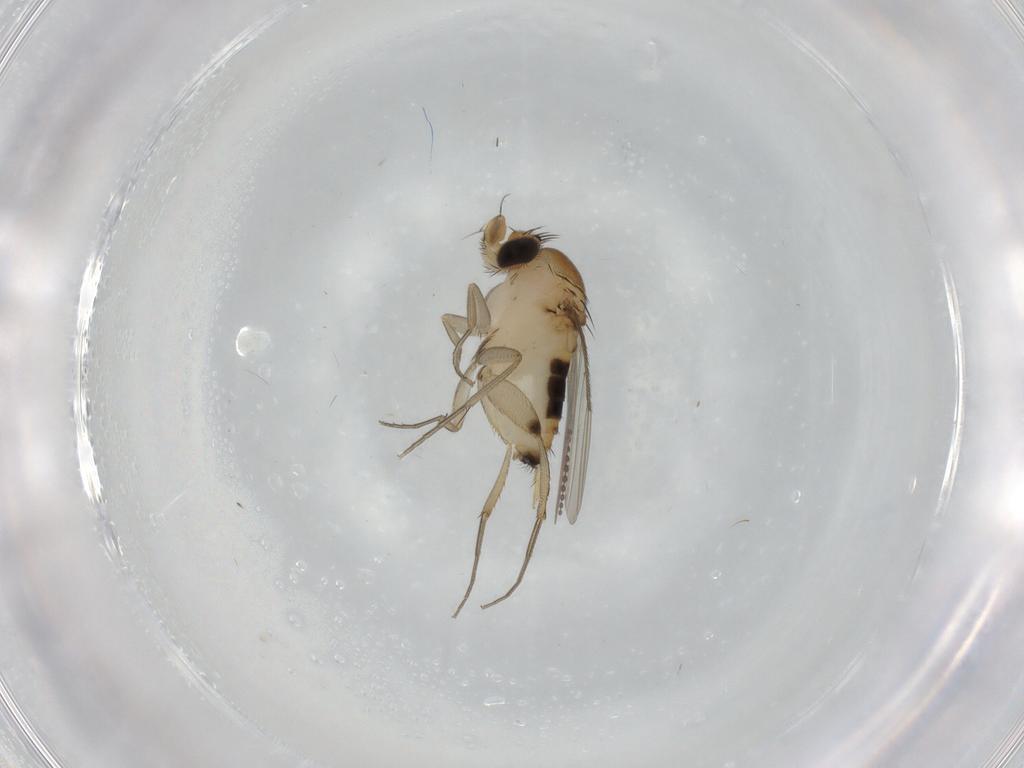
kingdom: Animalia
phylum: Arthropoda
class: Insecta
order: Diptera
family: Phoridae
